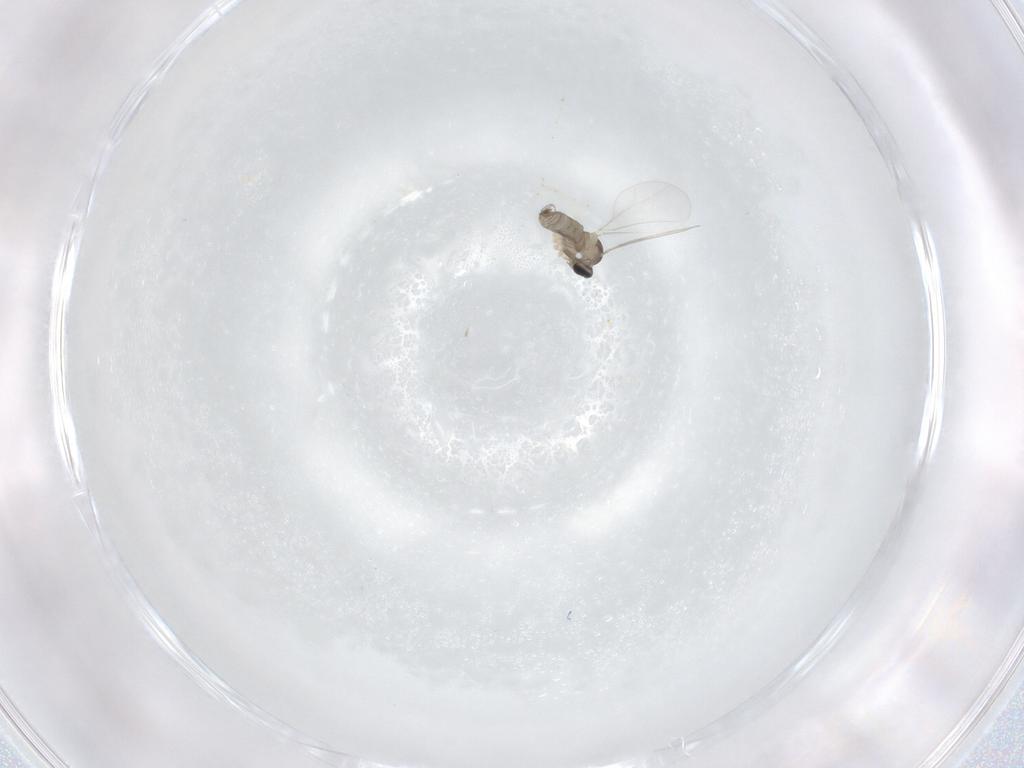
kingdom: Animalia
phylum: Arthropoda
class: Insecta
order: Diptera
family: Cecidomyiidae
